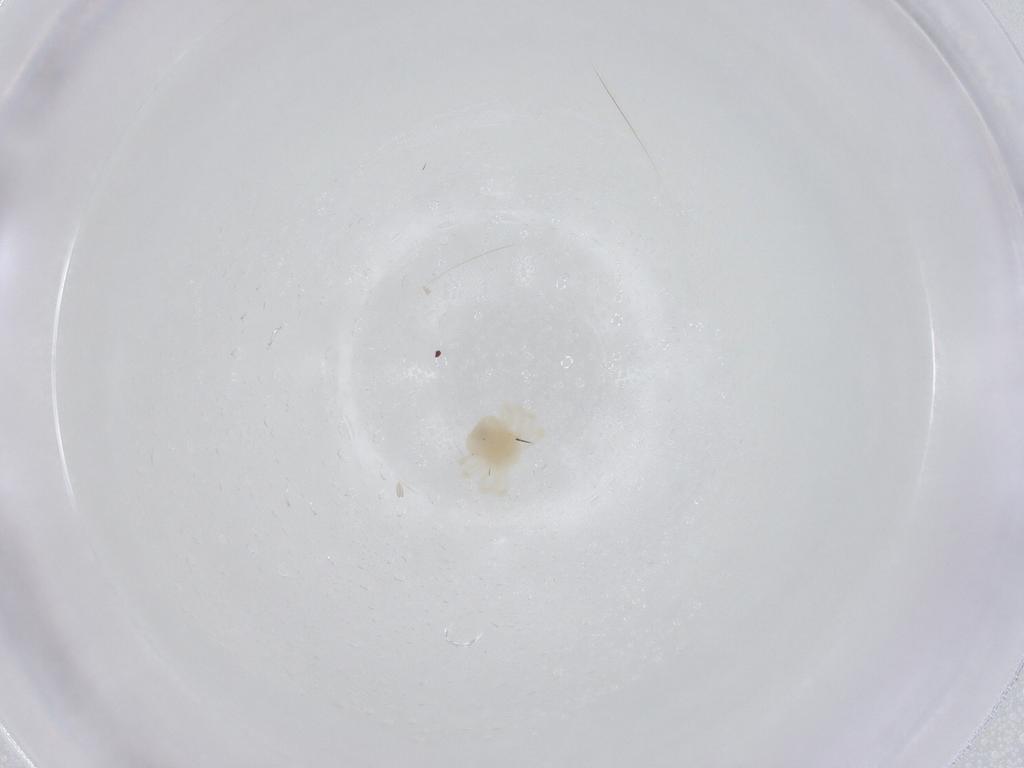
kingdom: Animalia
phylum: Arthropoda
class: Arachnida
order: Trombidiformes
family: Anystidae
